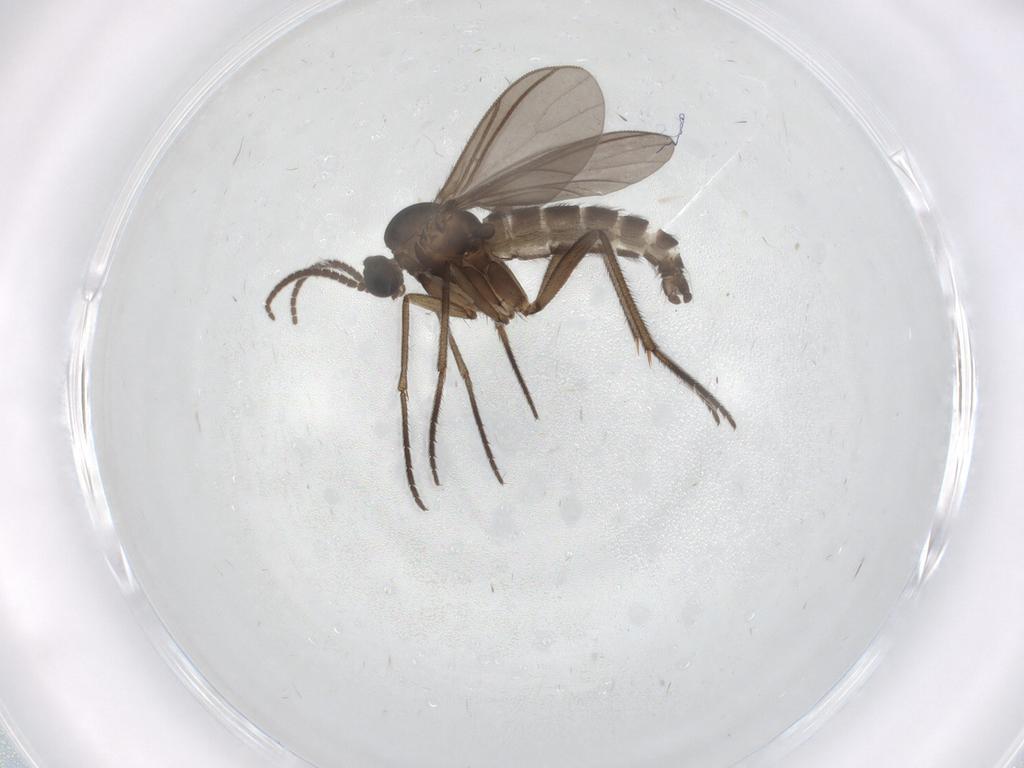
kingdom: Animalia
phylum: Arthropoda
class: Insecta
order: Diptera
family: Sciaridae
